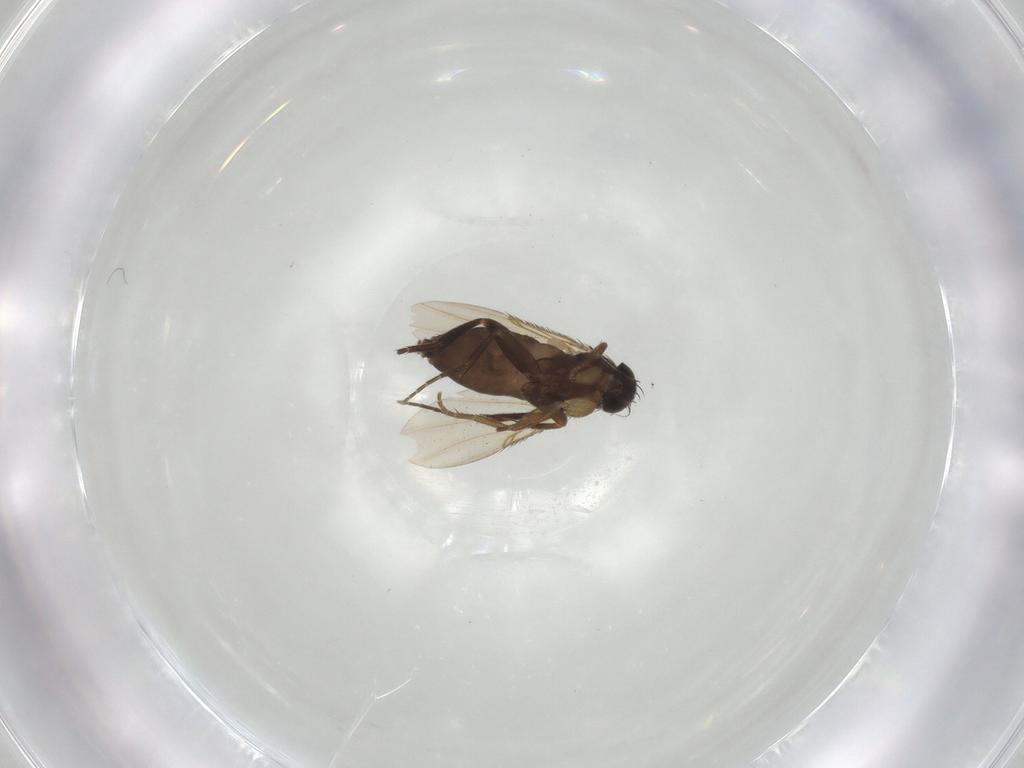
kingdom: Animalia
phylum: Arthropoda
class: Insecta
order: Diptera
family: Phoridae
